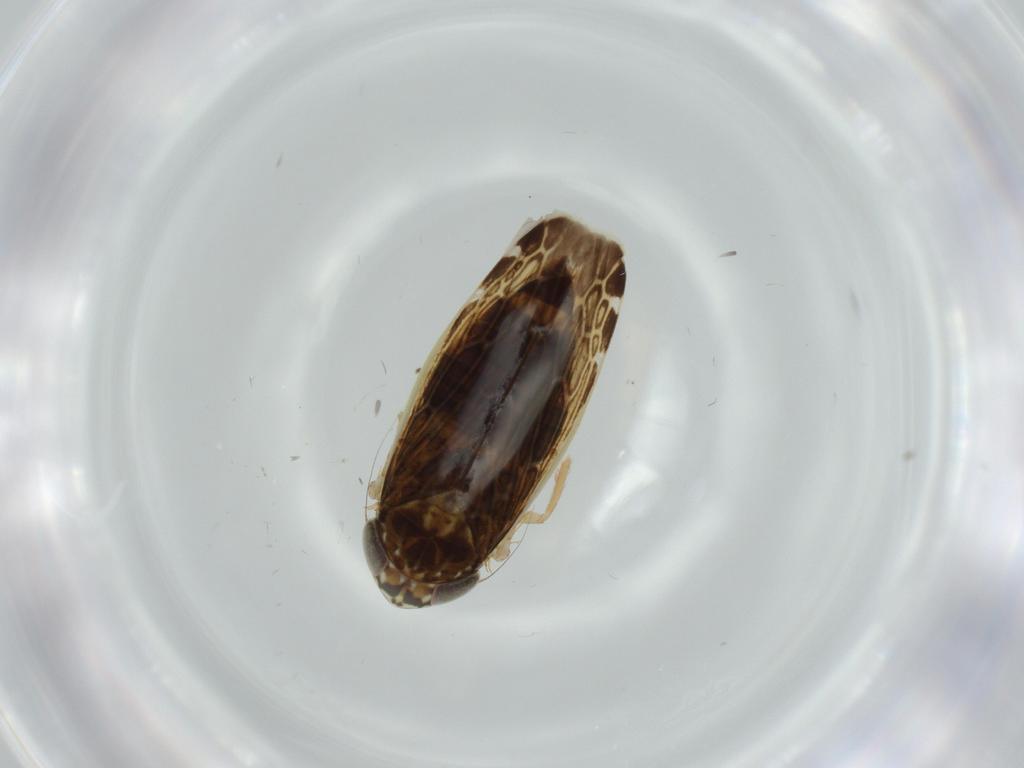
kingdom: Animalia
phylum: Arthropoda
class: Insecta
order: Hemiptera
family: Cicadellidae
